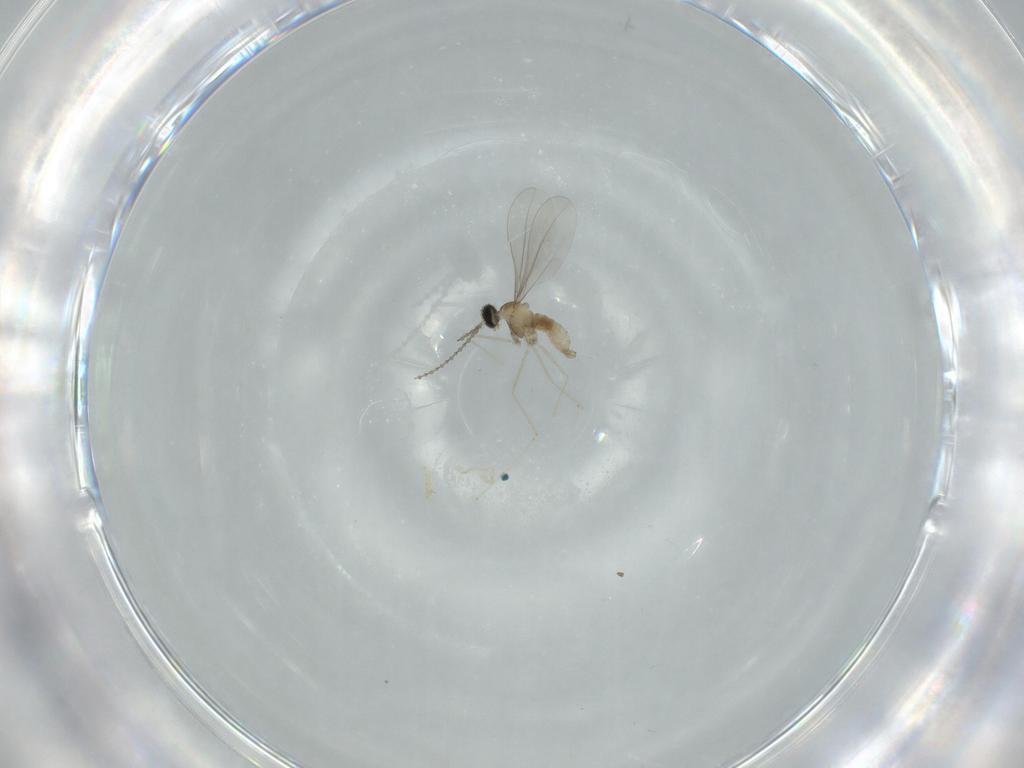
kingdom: Animalia
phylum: Arthropoda
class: Insecta
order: Diptera
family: Cecidomyiidae
